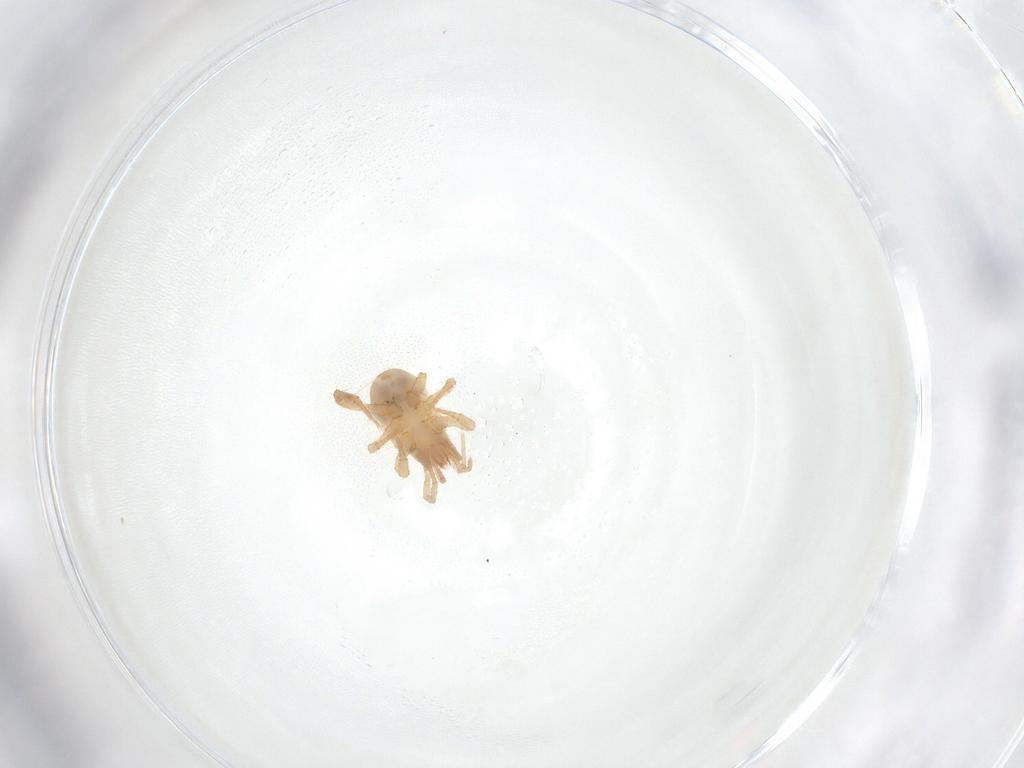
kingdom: Animalia
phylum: Arthropoda
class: Arachnida
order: Mesostigmata
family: Veigaiidae
